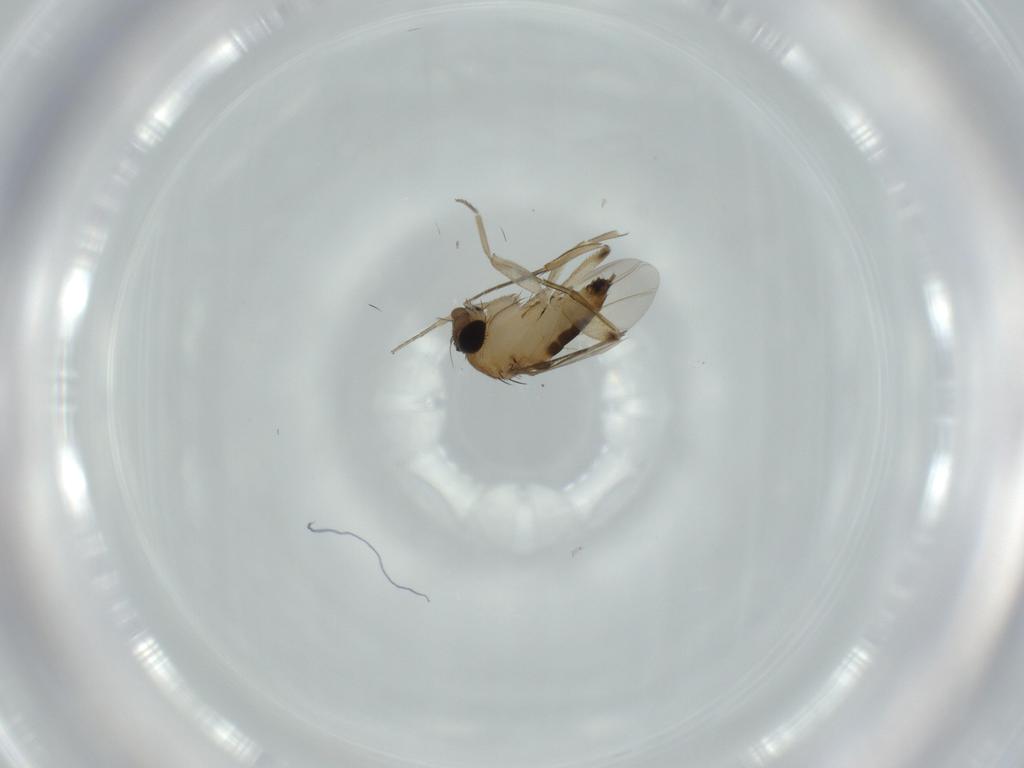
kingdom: Animalia
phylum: Arthropoda
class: Insecta
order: Diptera
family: Phoridae
